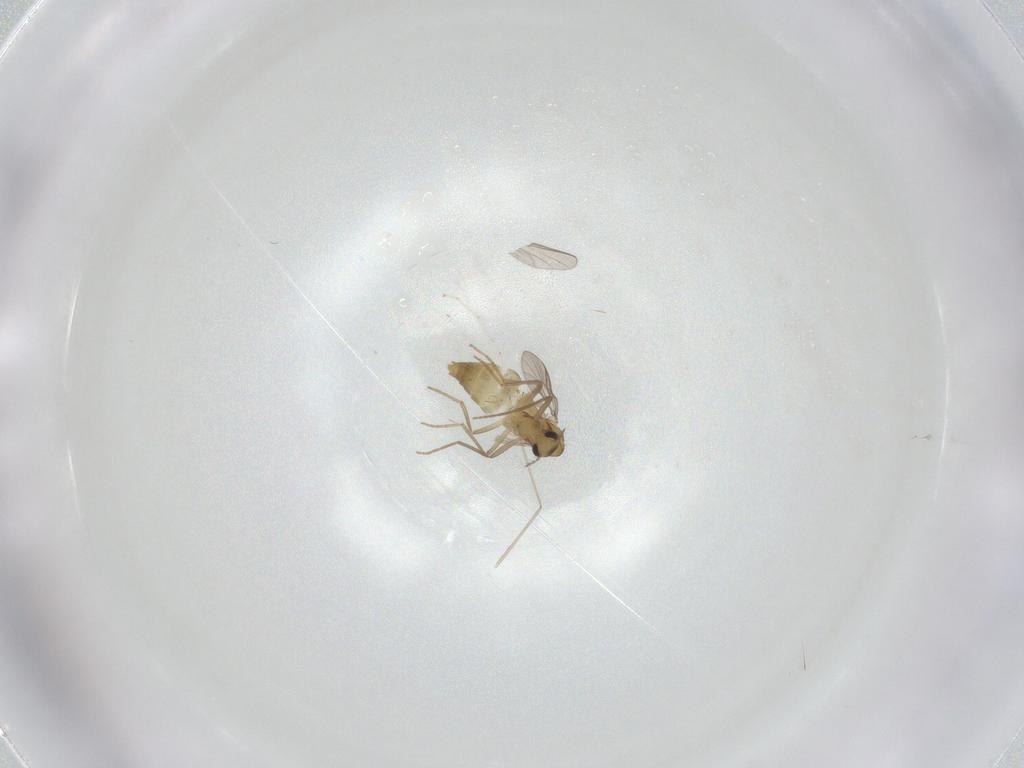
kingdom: Animalia
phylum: Arthropoda
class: Insecta
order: Diptera
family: Chironomidae
